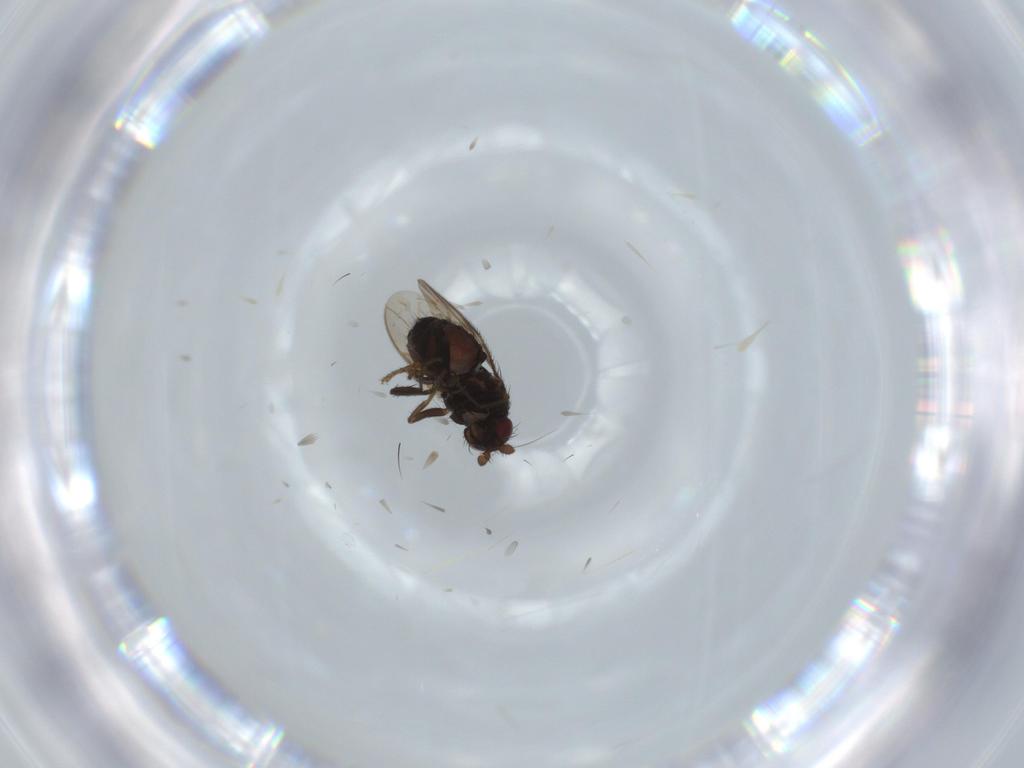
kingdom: Animalia
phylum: Arthropoda
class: Insecta
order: Diptera
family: Sphaeroceridae
